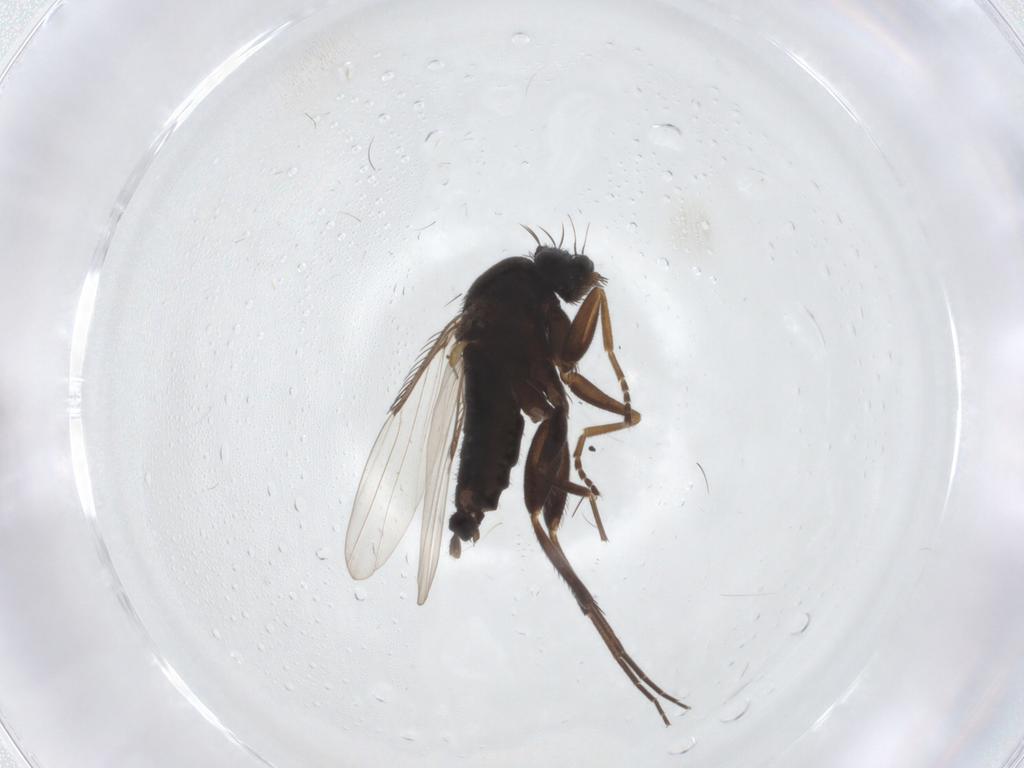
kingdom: Animalia
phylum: Arthropoda
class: Insecta
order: Diptera
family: Phoridae
